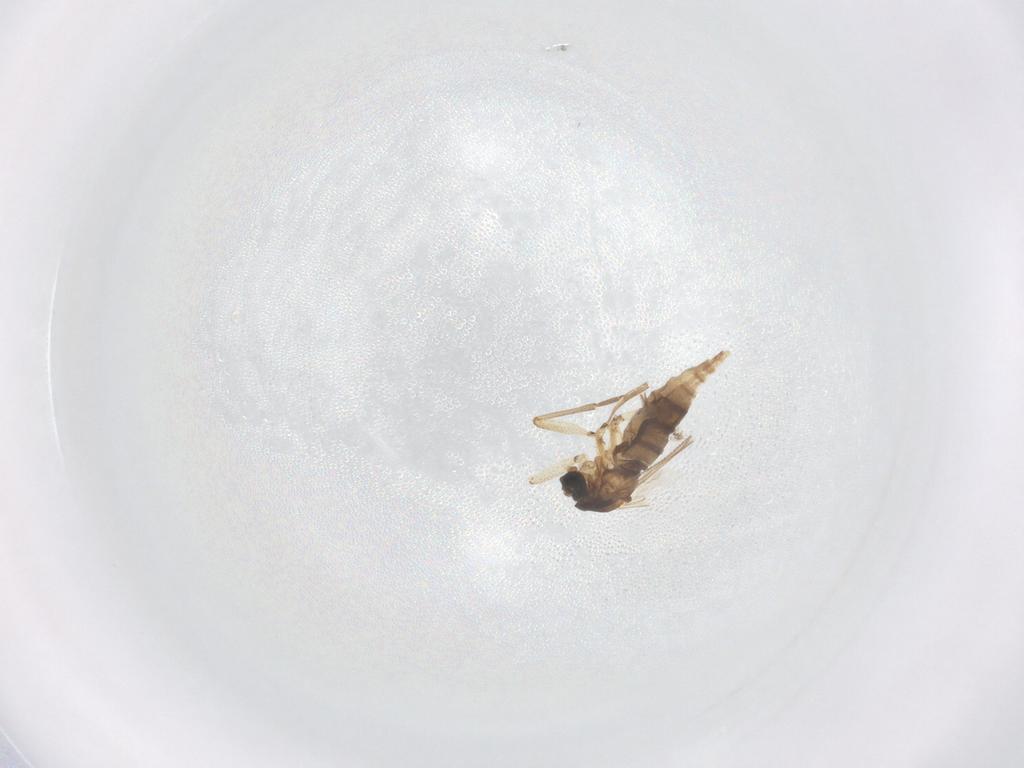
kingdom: Animalia
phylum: Arthropoda
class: Insecta
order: Diptera
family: Sciaridae
